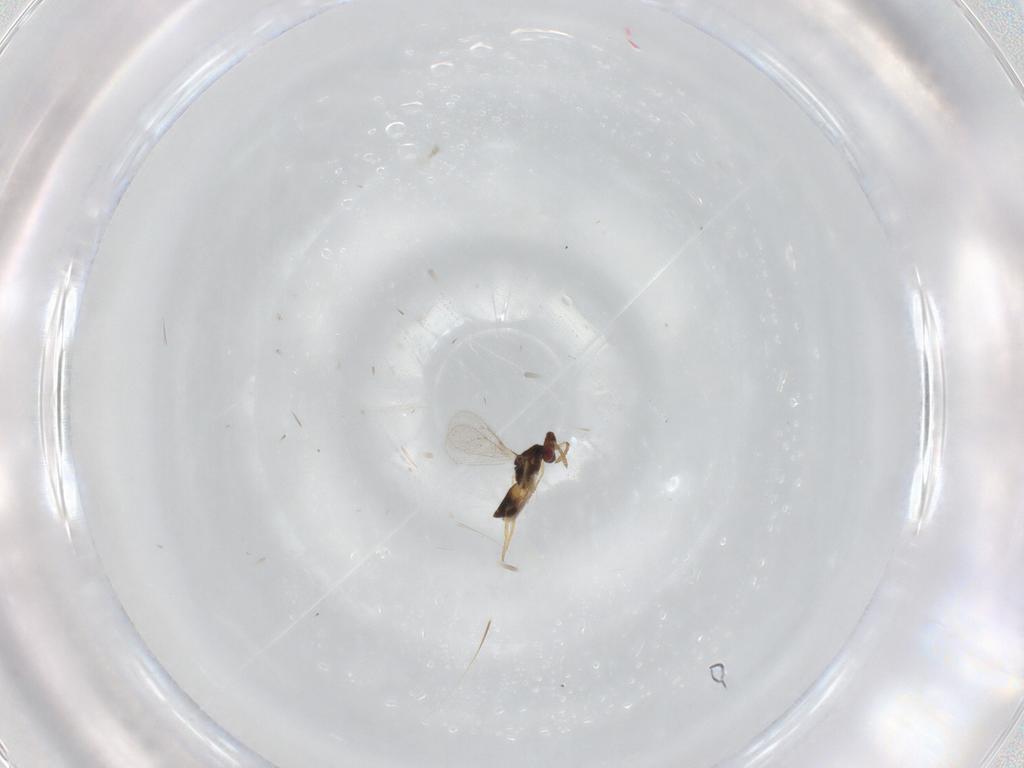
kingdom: Animalia
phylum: Arthropoda
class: Insecta
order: Hymenoptera
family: Eulophidae
